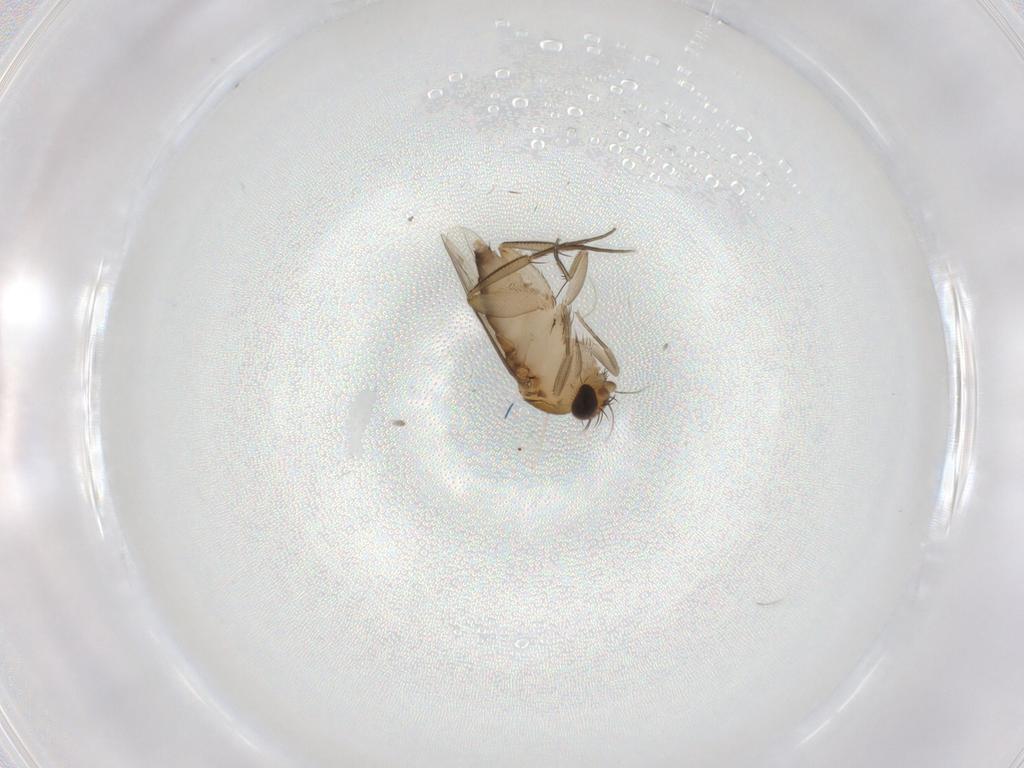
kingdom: Animalia
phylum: Arthropoda
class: Insecta
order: Diptera
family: Phoridae
